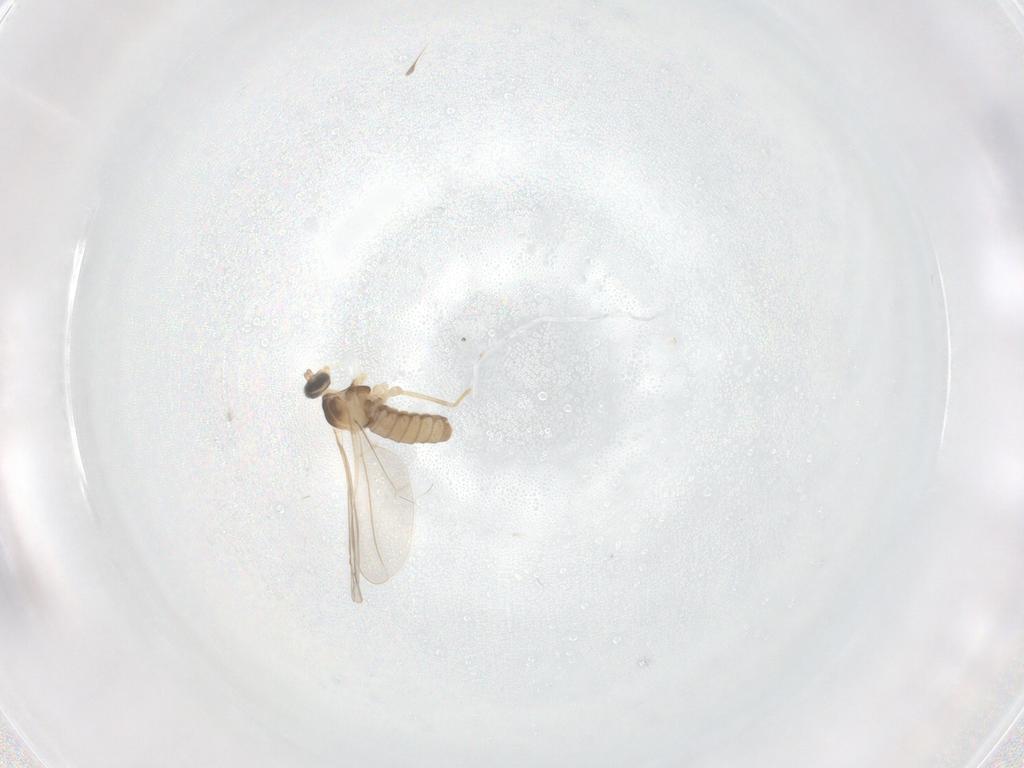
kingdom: Animalia
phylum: Arthropoda
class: Insecta
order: Diptera
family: Cecidomyiidae
